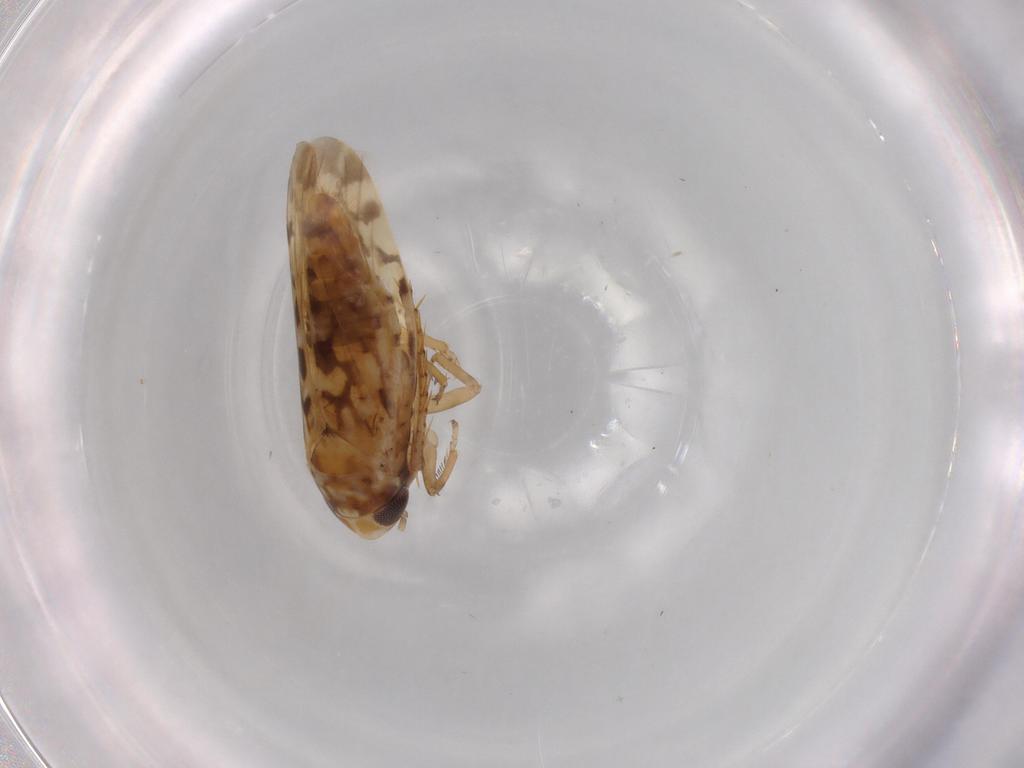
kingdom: Animalia
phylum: Arthropoda
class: Insecta
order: Hemiptera
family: Cicadellidae
